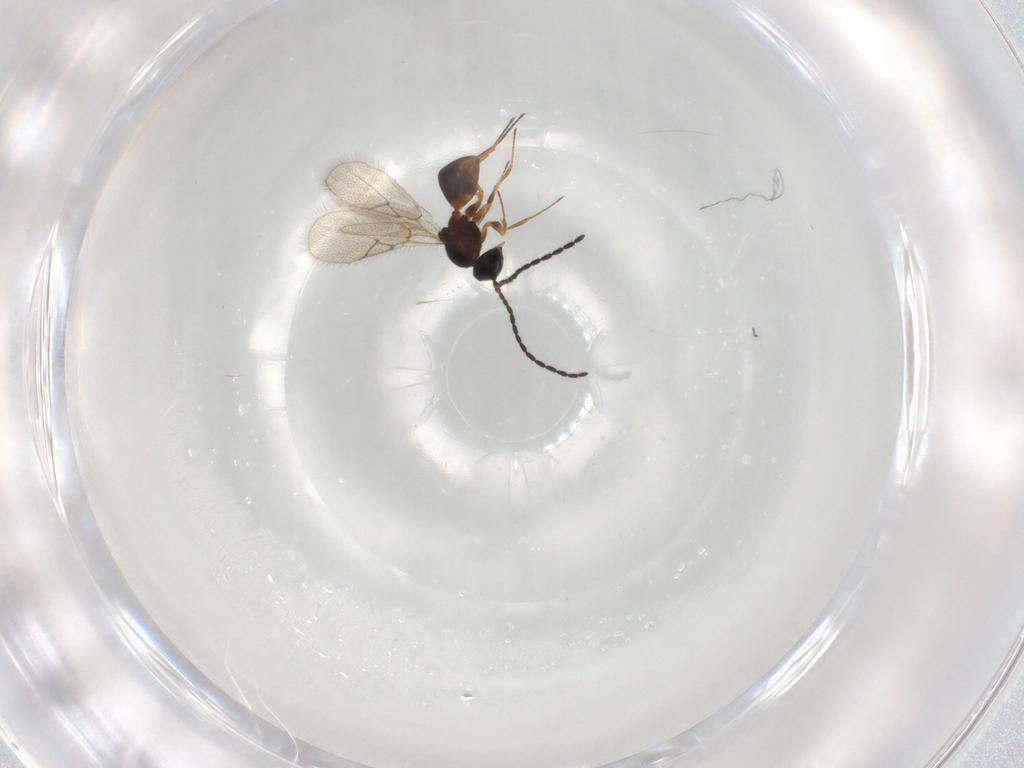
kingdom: Animalia
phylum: Arthropoda
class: Insecta
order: Hymenoptera
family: Figitidae
